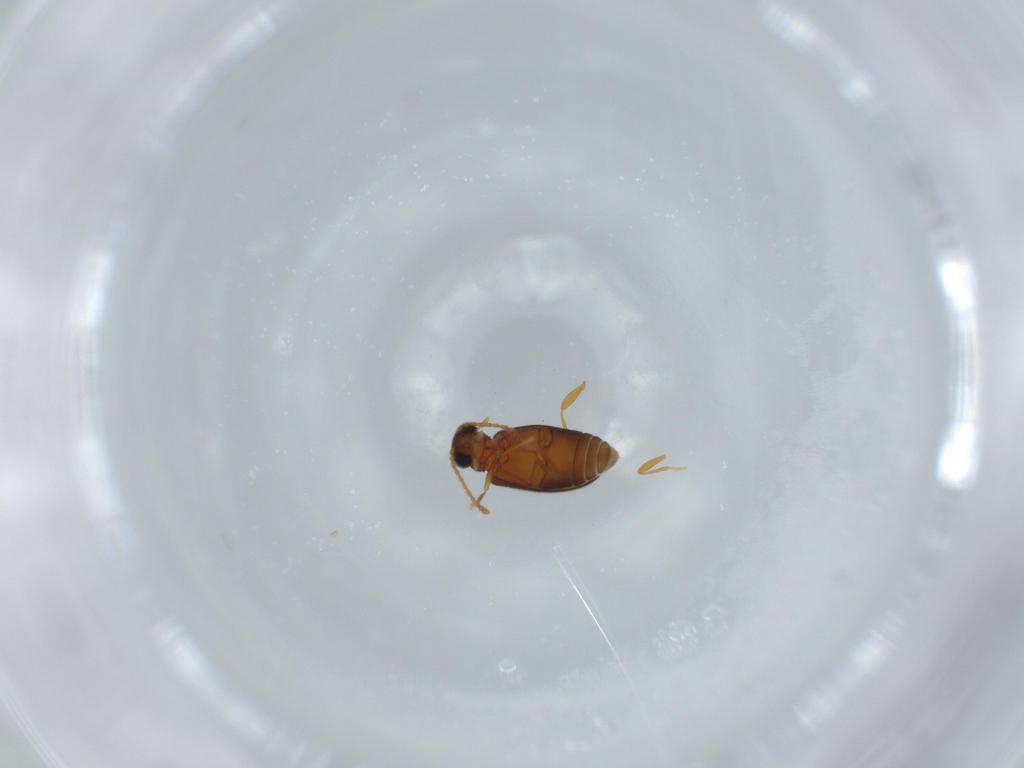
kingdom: Animalia
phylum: Arthropoda
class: Insecta
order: Coleoptera
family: Aderidae
